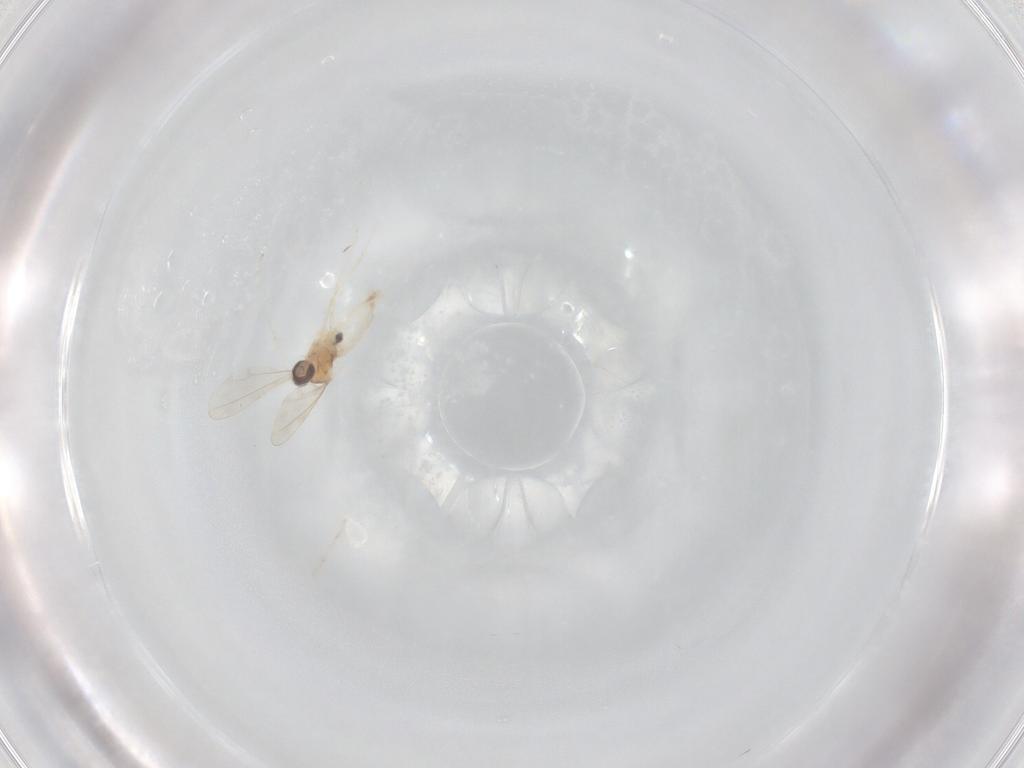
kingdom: Animalia
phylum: Arthropoda
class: Insecta
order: Diptera
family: Cecidomyiidae
